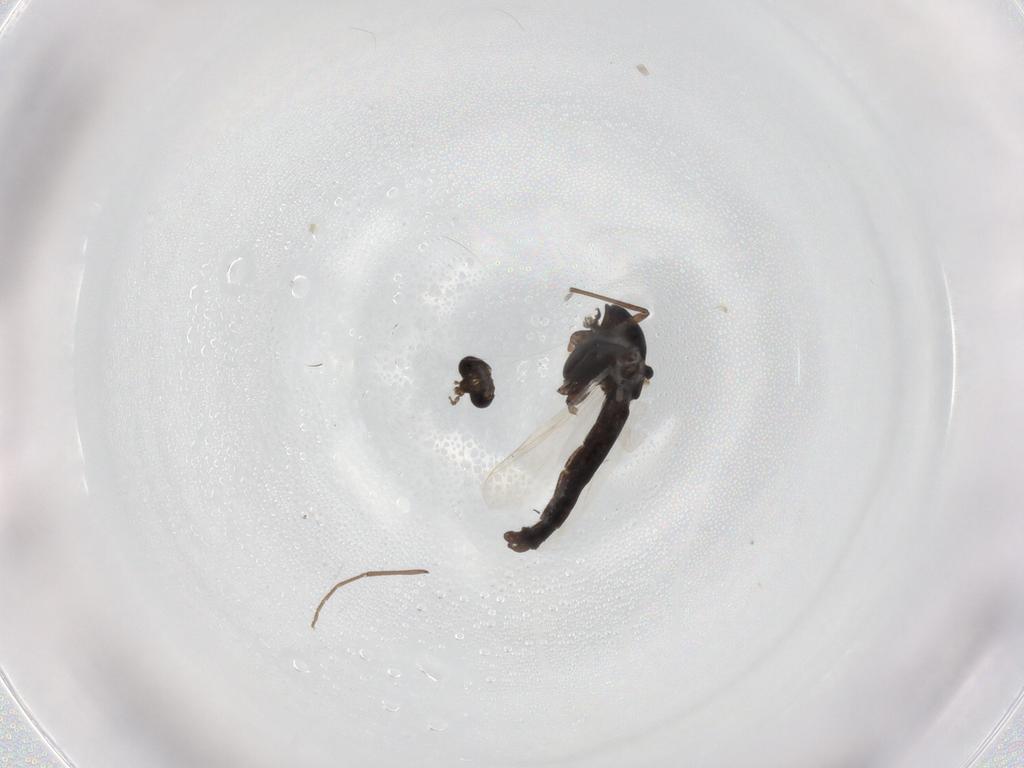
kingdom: Animalia
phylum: Arthropoda
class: Insecta
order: Diptera
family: Chironomidae
